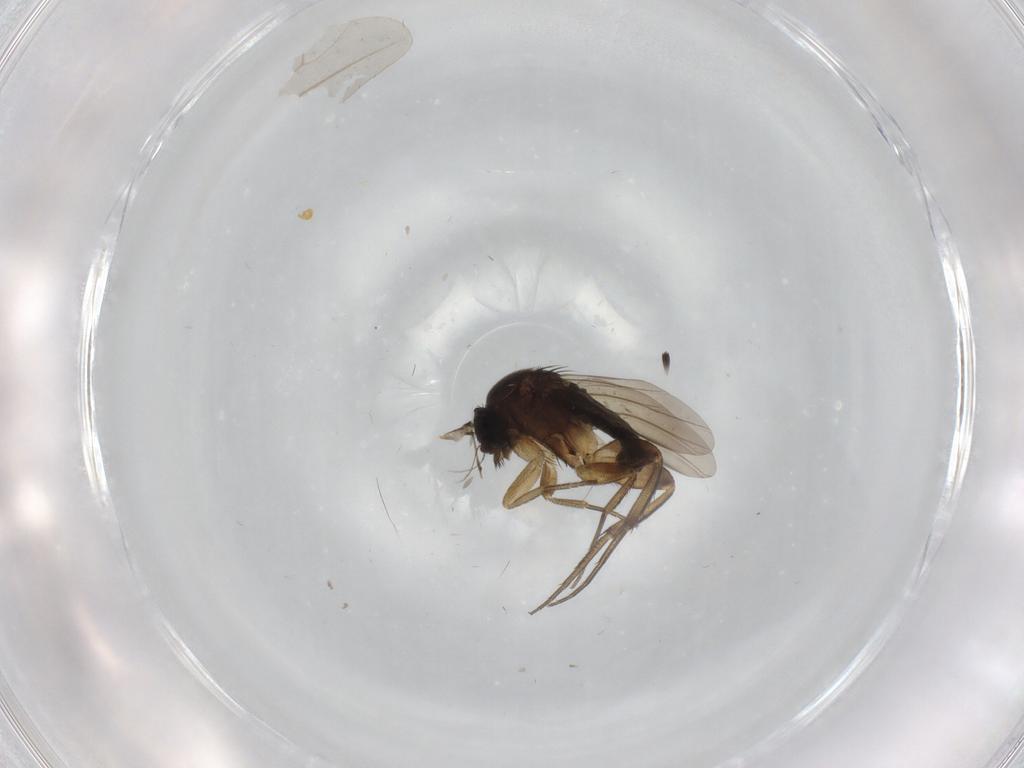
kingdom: Animalia
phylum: Arthropoda
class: Insecta
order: Diptera
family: Phoridae
